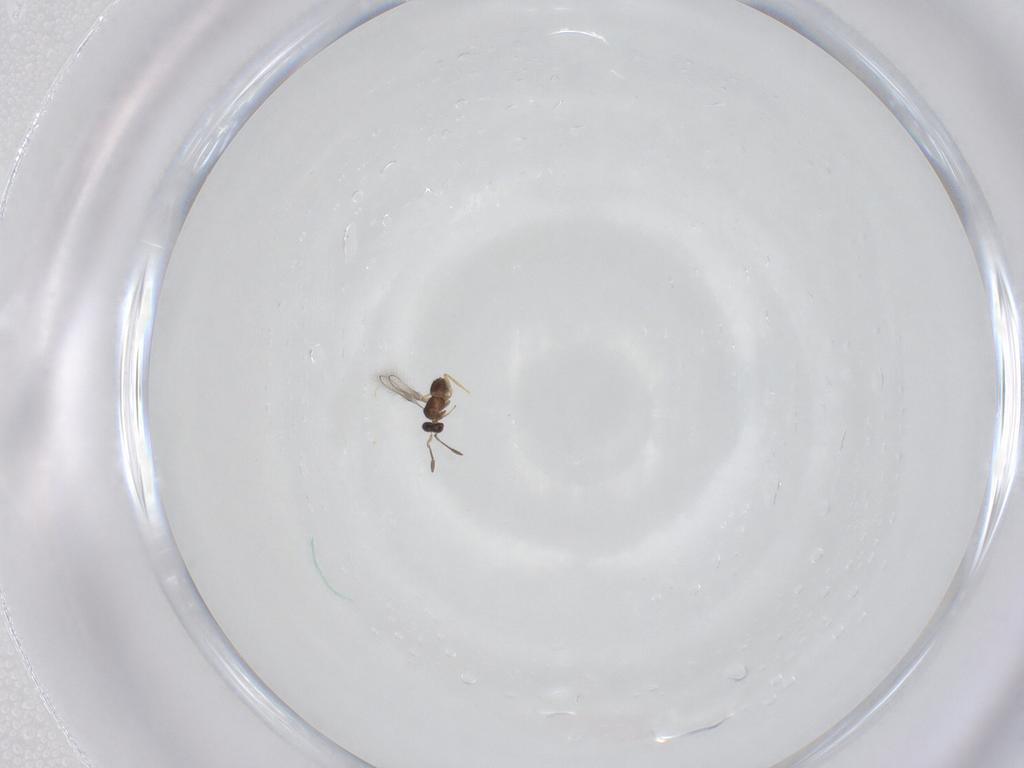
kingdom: Animalia
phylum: Arthropoda
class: Insecta
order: Hymenoptera
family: Mymaridae
